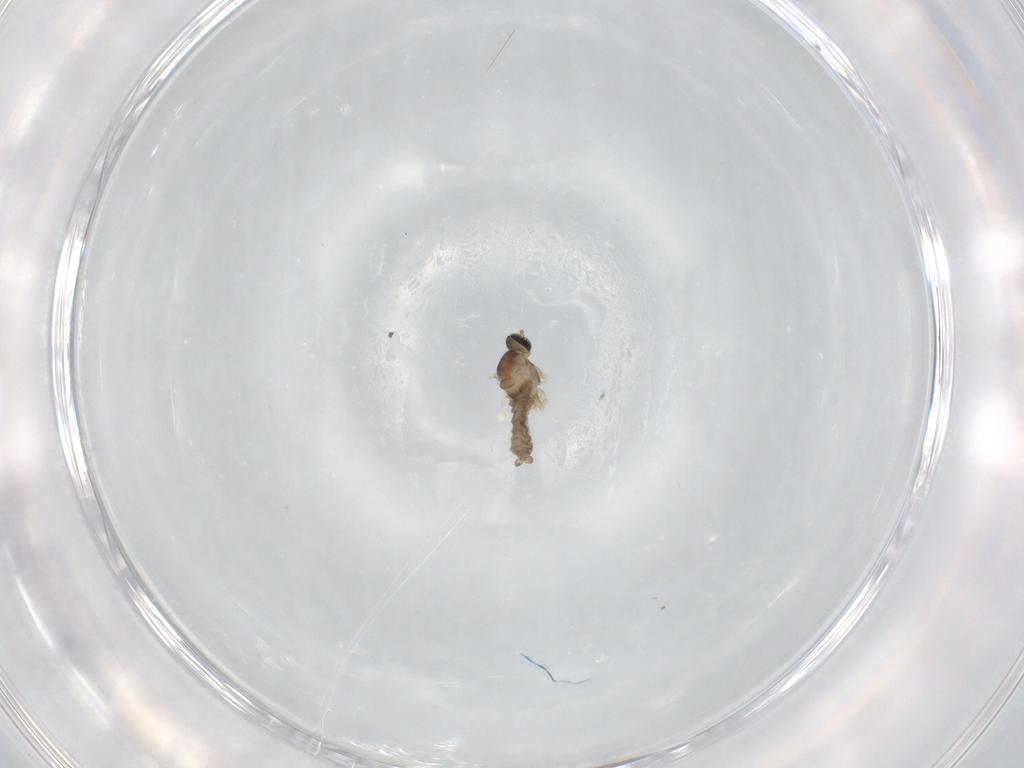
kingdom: Animalia
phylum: Arthropoda
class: Insecta
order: Diptera
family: Cecidomyiidae
